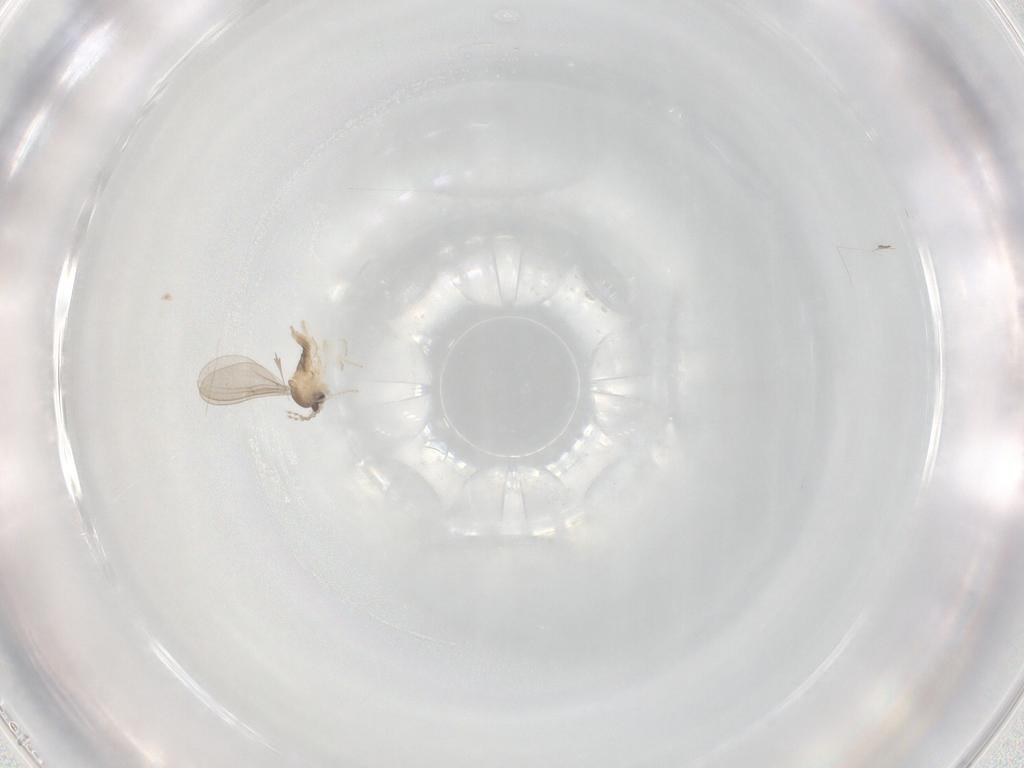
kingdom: Animalia
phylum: Arthropoda
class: Insecta
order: Diptera
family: Cecidomyiidae
